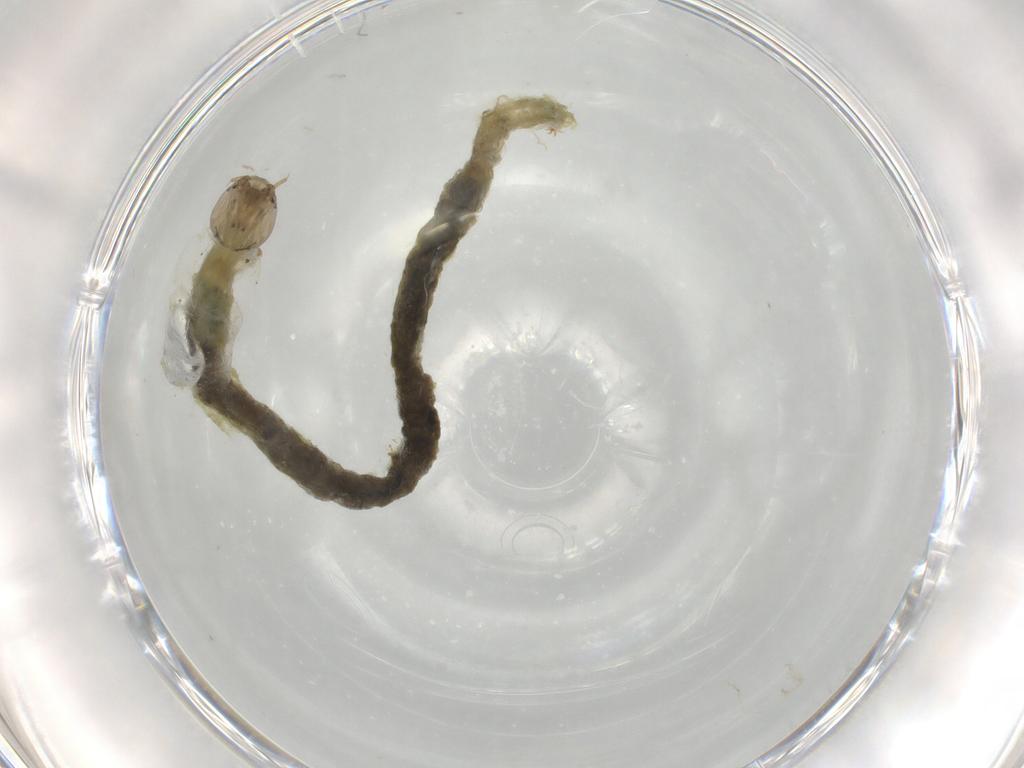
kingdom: Animalia
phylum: Arthropoda
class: Insecta
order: Diptera
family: Chironomidae
